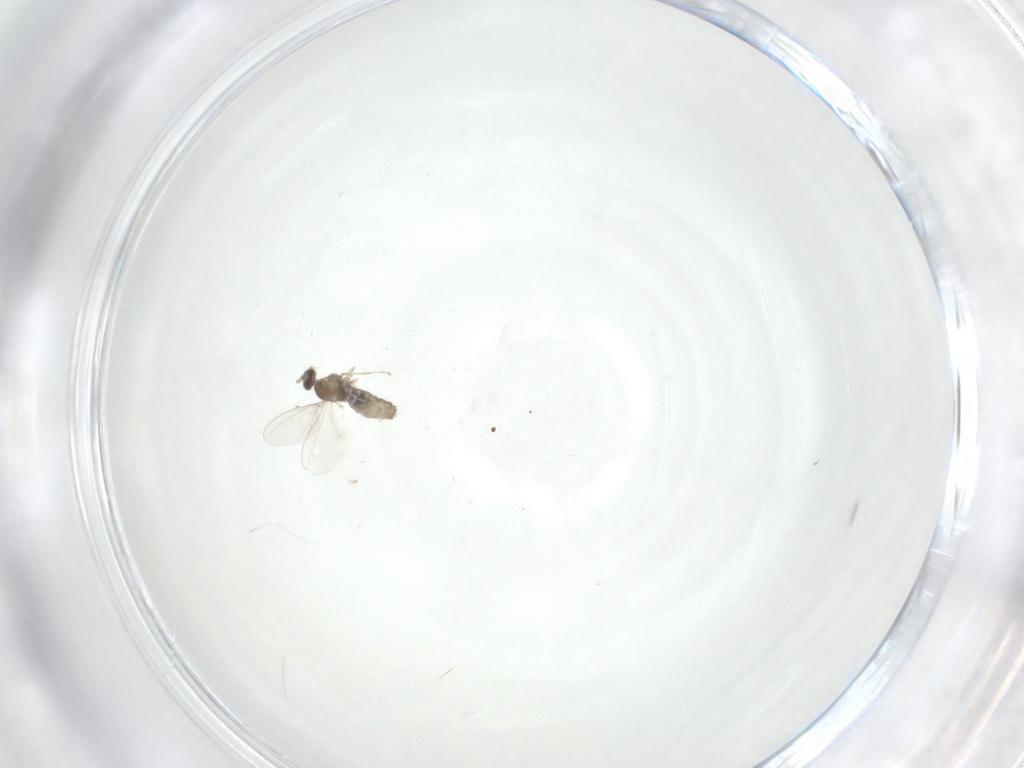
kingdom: Animalia
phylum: Arthropoda
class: Insecta
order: Diptera
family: Cecidomyiidae
